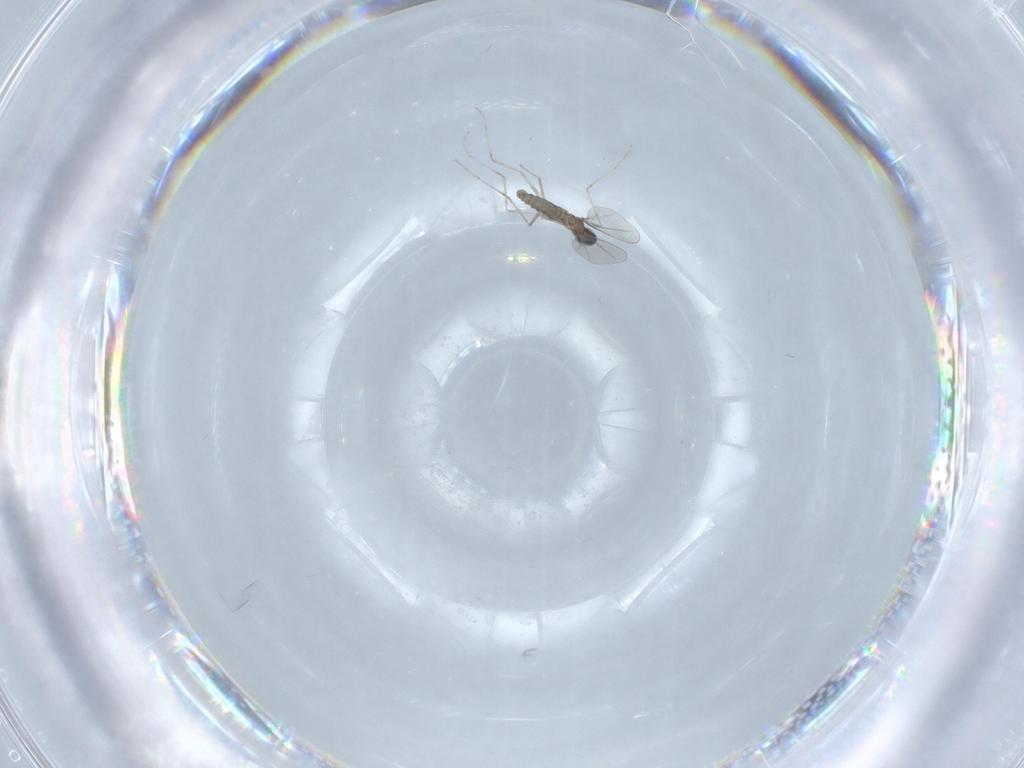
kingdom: Animalia
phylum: Arthropoda
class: Insecta
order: Diptera
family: Cecidomyiidae
